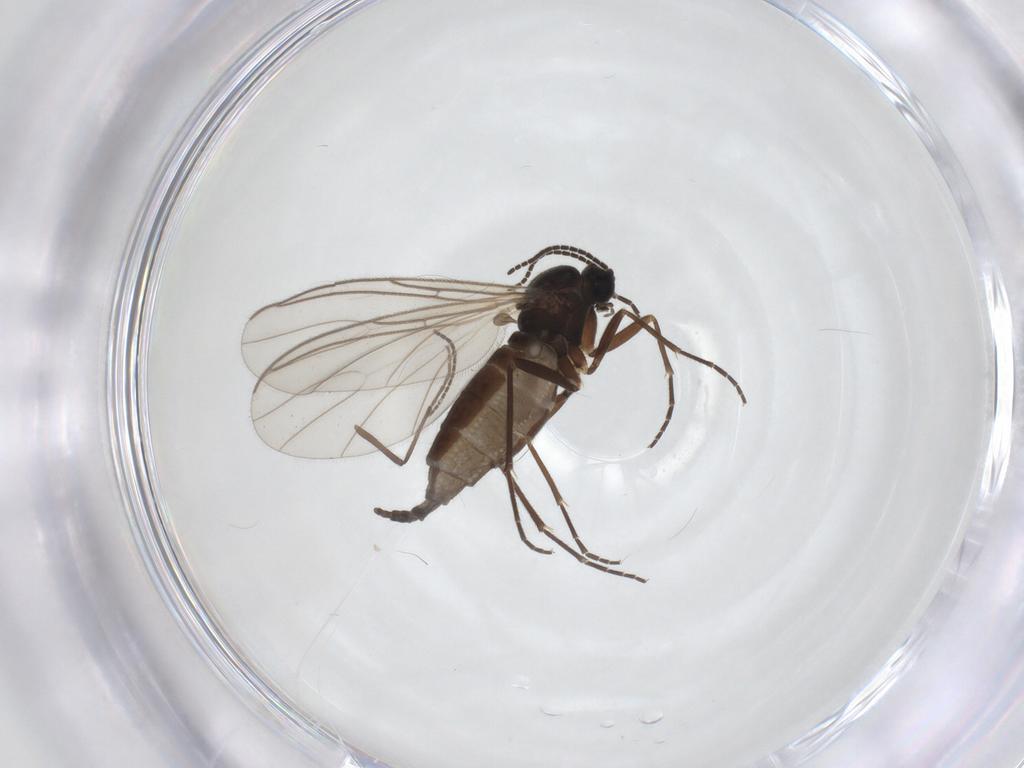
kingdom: Animalia
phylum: Arthropoda
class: Insecta
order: Diptera
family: Sciaridae
